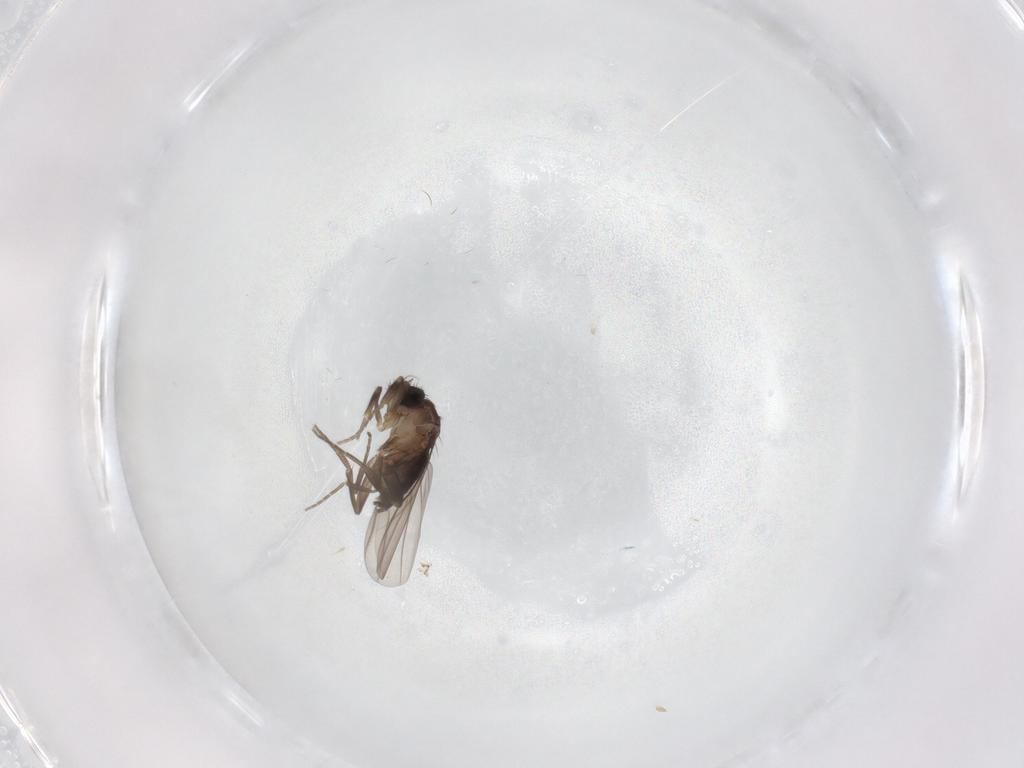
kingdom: Animalia
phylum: Arthropoda
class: Insecta
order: Diptera
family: Phoridae
